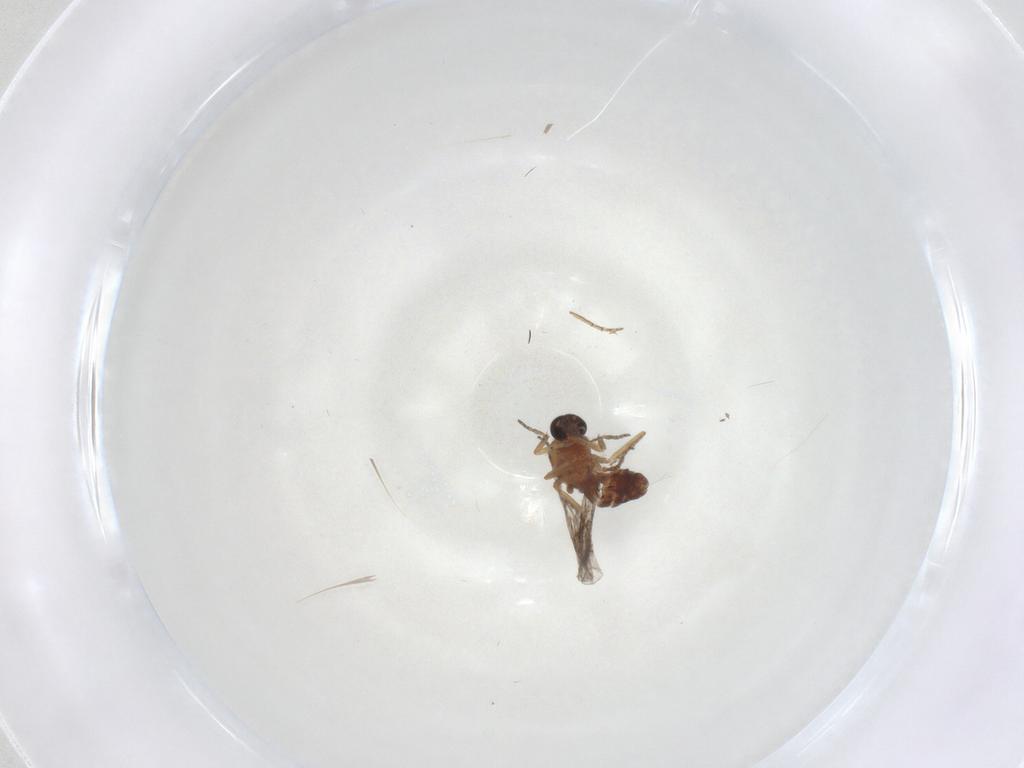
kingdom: Animalia
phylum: Arthropoda
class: Insecta
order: Diptera
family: Ceratopogonidae
